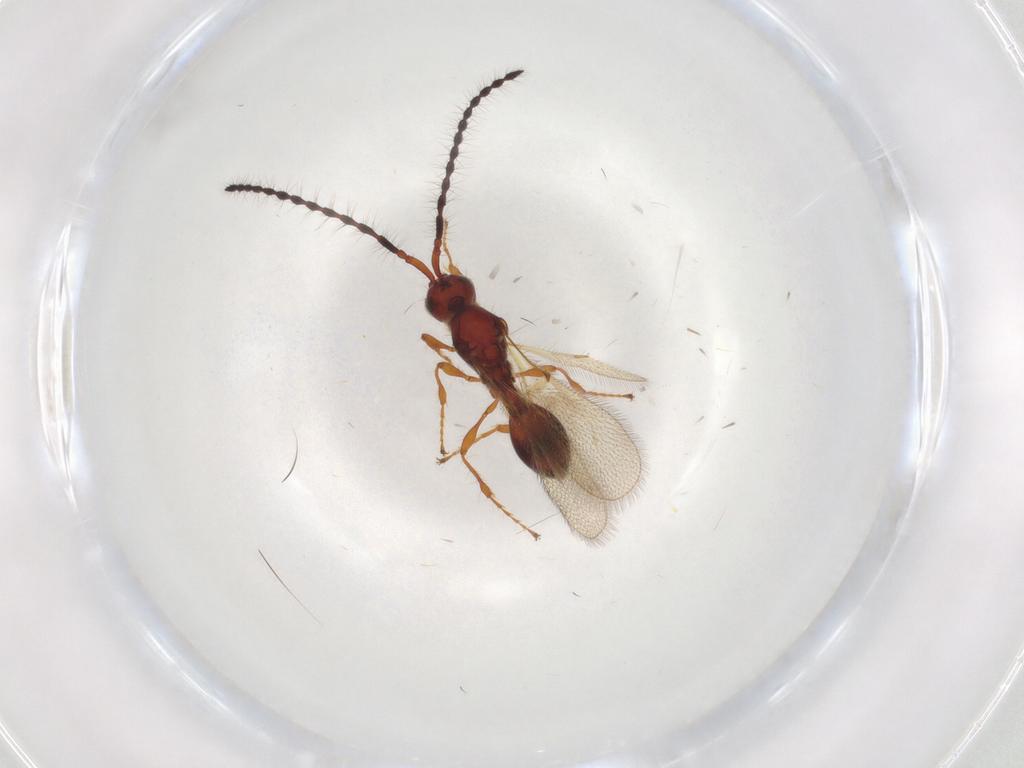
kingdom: Animalia
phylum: Arthropoda
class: Insecta
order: Hymenoptera
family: Diapriidae
